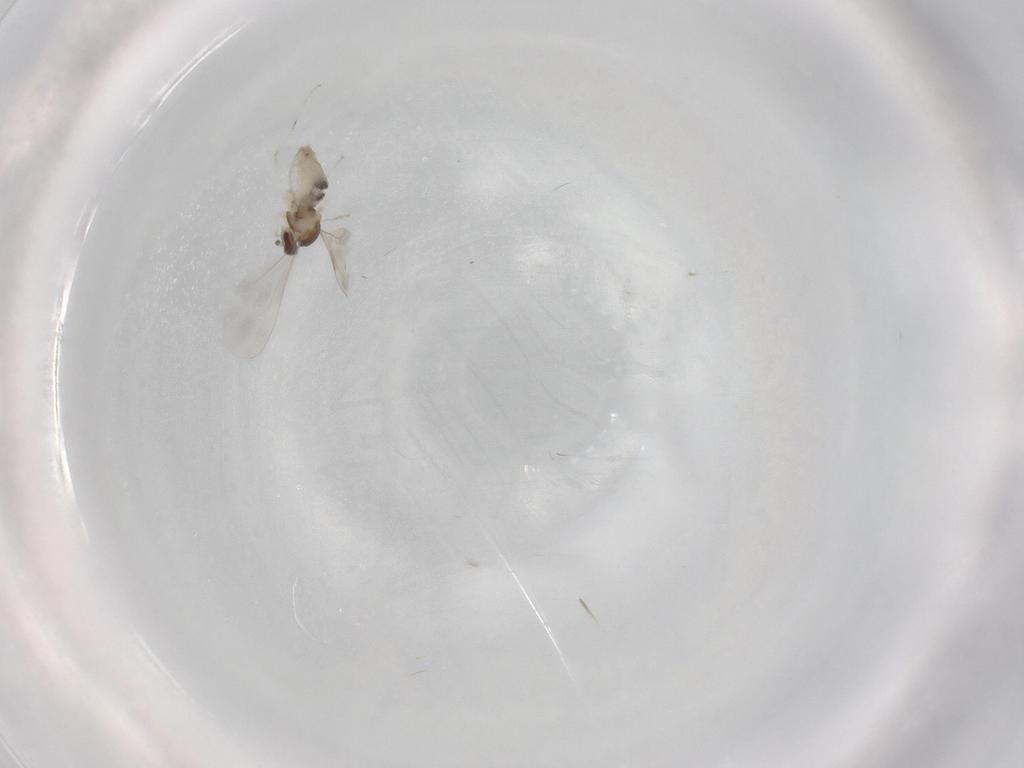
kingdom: Animalia
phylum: Arthropoda
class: Insecta
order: Diptera
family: Cecidomyiidae
